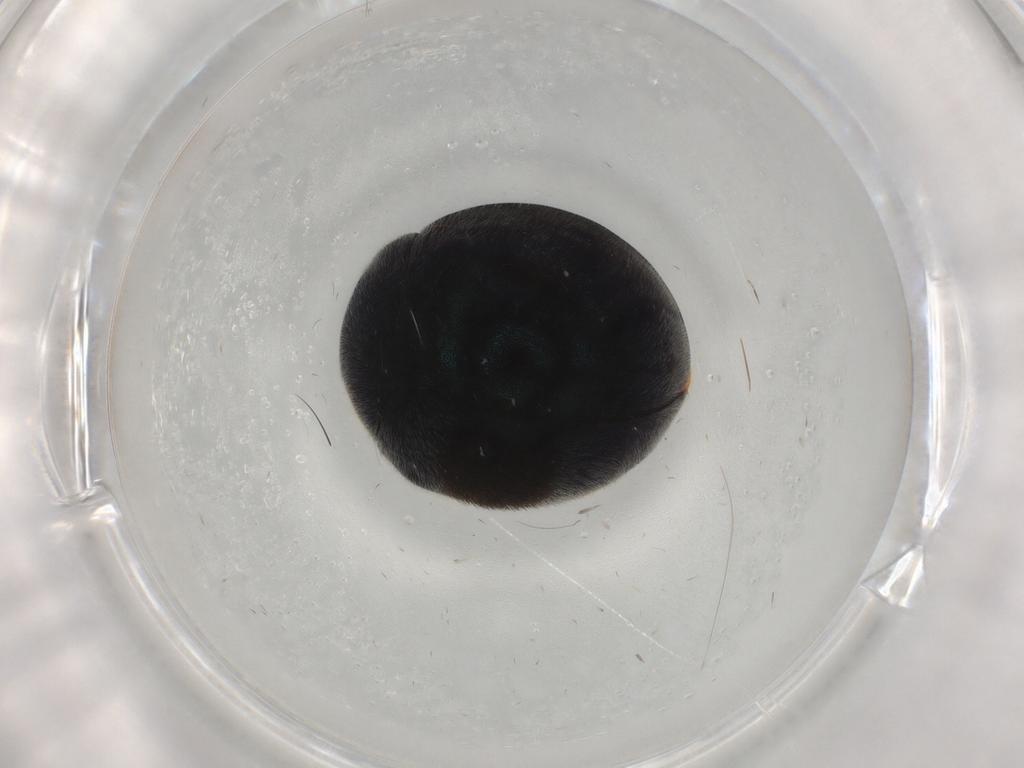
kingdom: Animalia
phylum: Arthropoda
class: Insecta
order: Coleoptera
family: Coccinellidae
